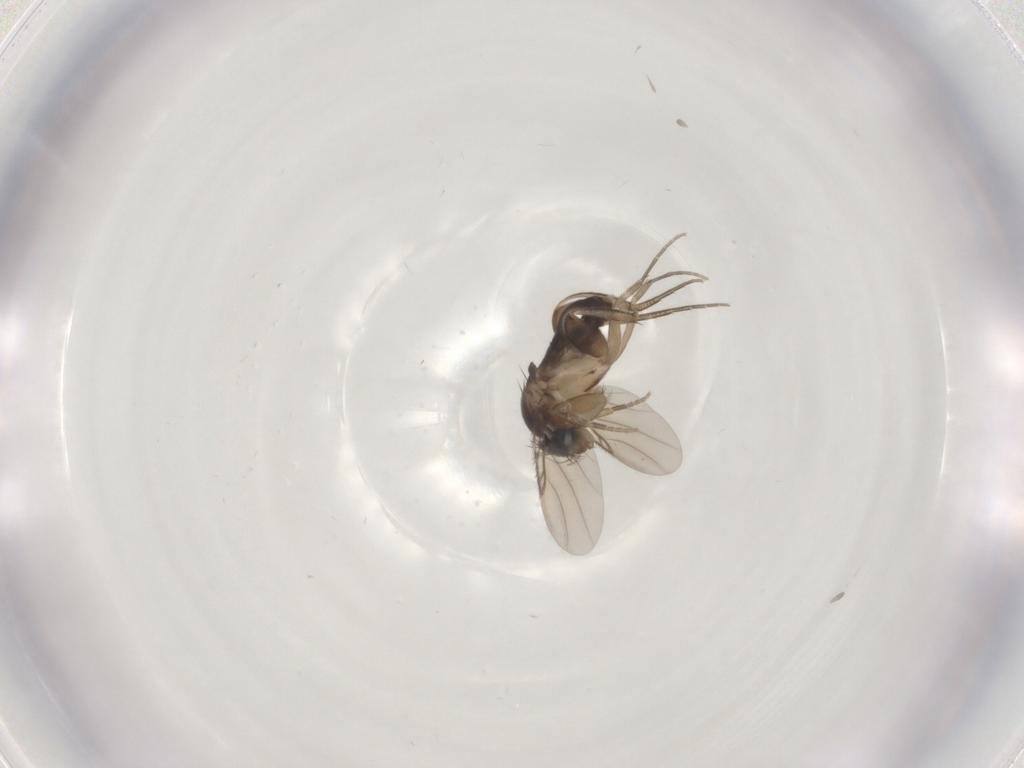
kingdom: Animalia
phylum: Arthropoda
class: Insecta
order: Diptera
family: Phoridae
